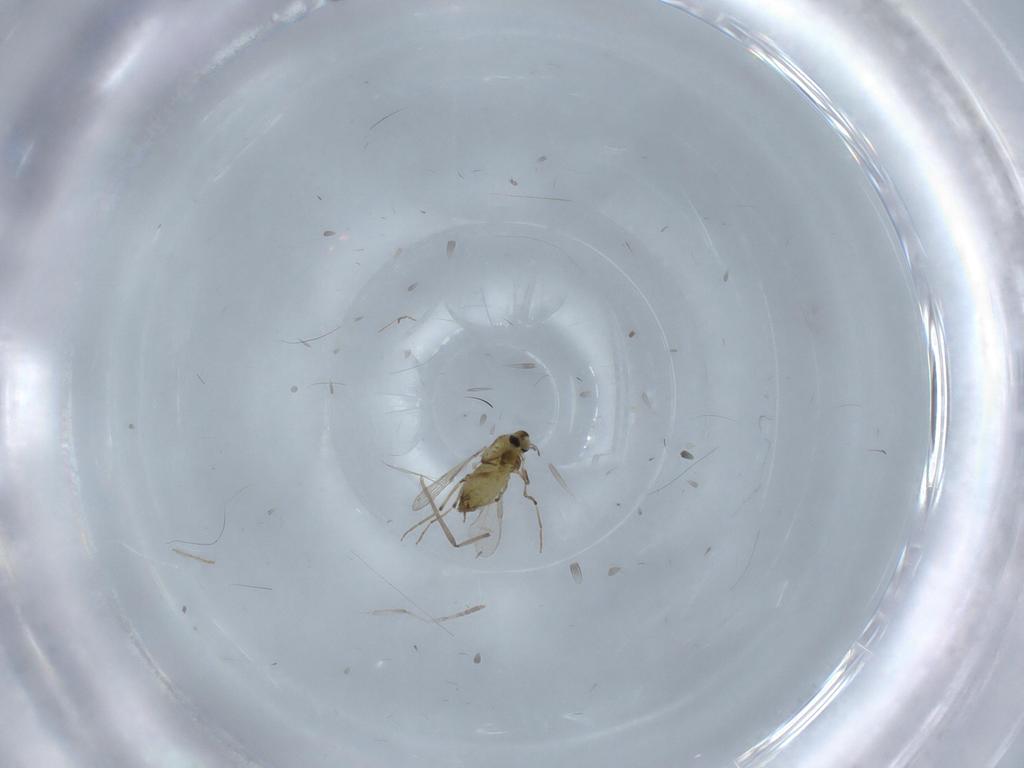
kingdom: Animalia
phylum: Arthropoda
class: Insecta
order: Diptera
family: Chironomidae
